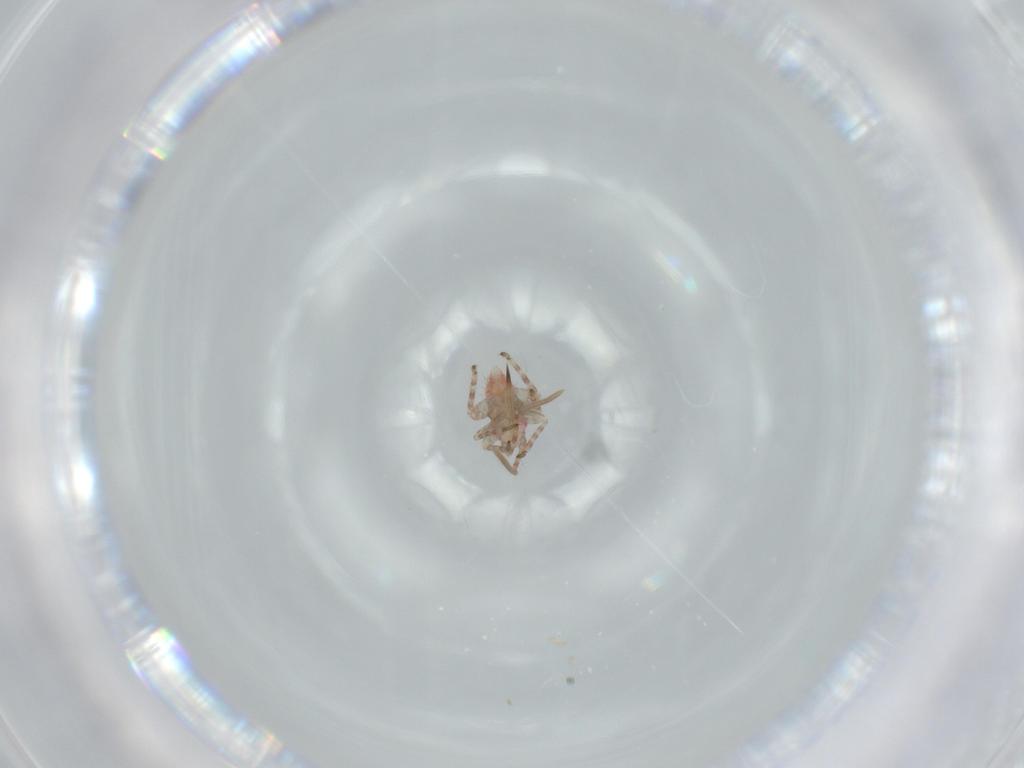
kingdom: Animalia
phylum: Arthropoda
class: Insecta
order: Hemiptera
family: Miridae
